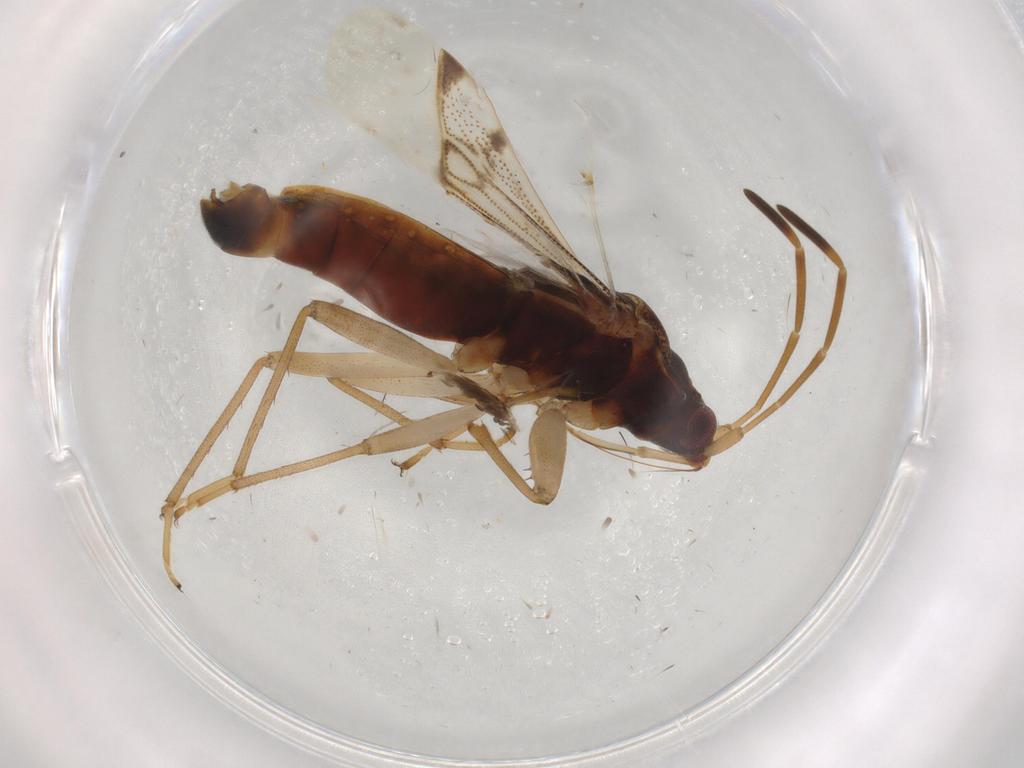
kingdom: Animalia
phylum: Arthropoda
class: Insecta
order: Hemiptera
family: Rhyparochromidae
